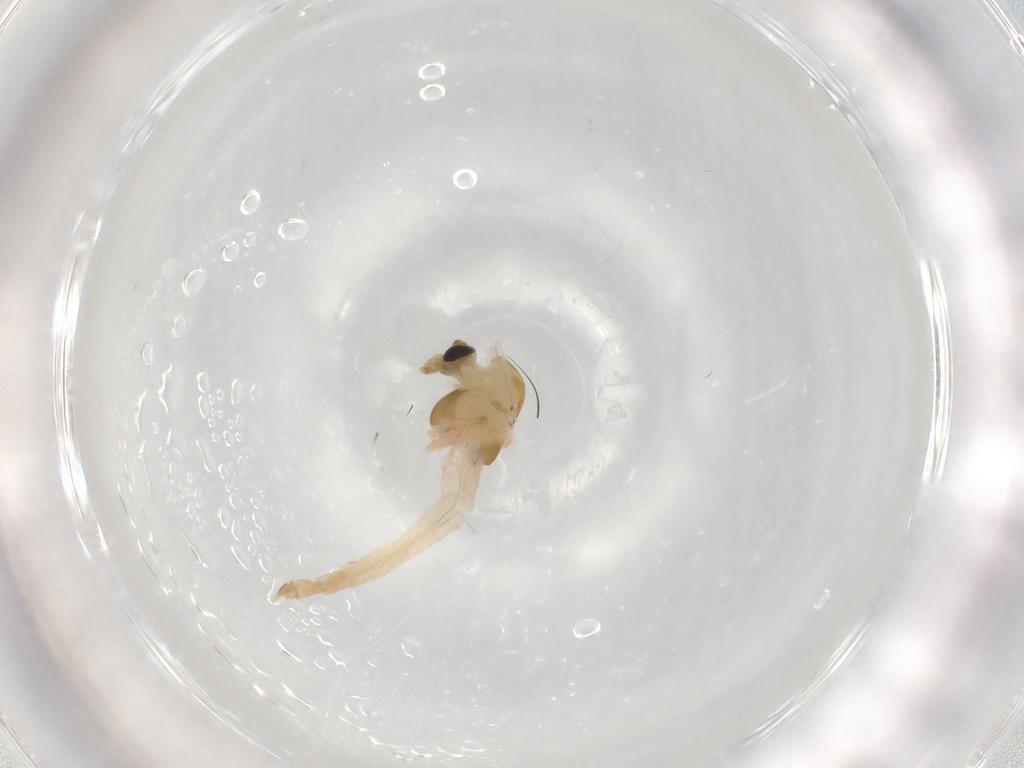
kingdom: Animalia
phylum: Arthropoda
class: Insecta
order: Diptera
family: Chironomidae
